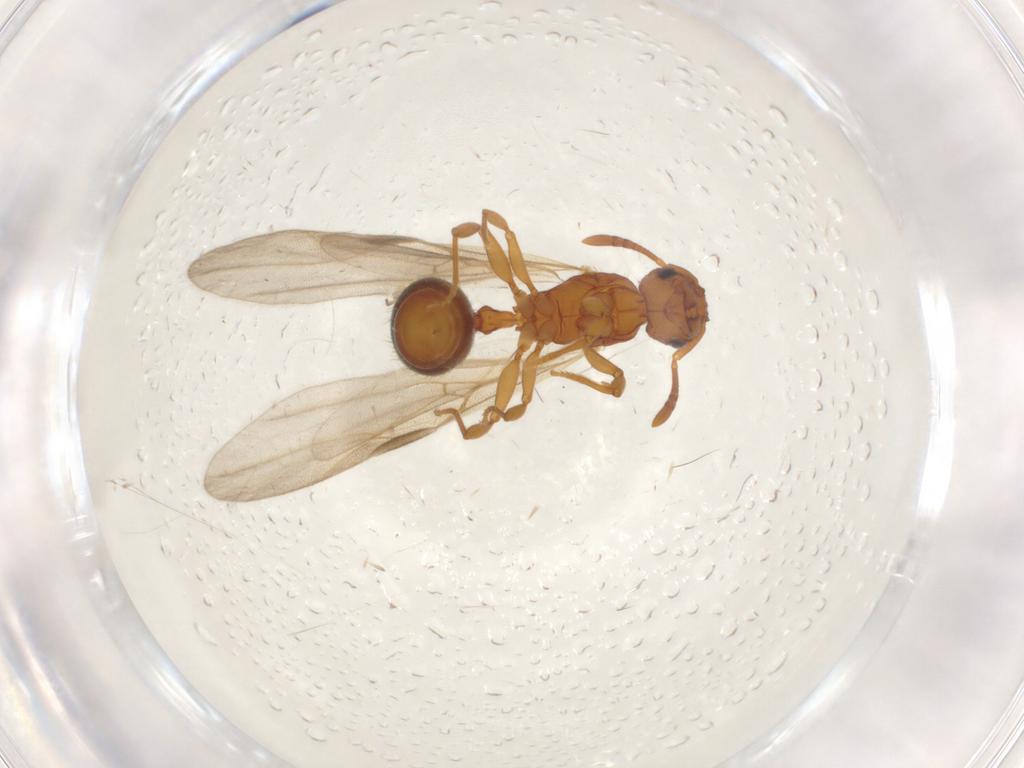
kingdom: Animalia
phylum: Arthropoda
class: Insecta
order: Hymenoptera
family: Formicidae
